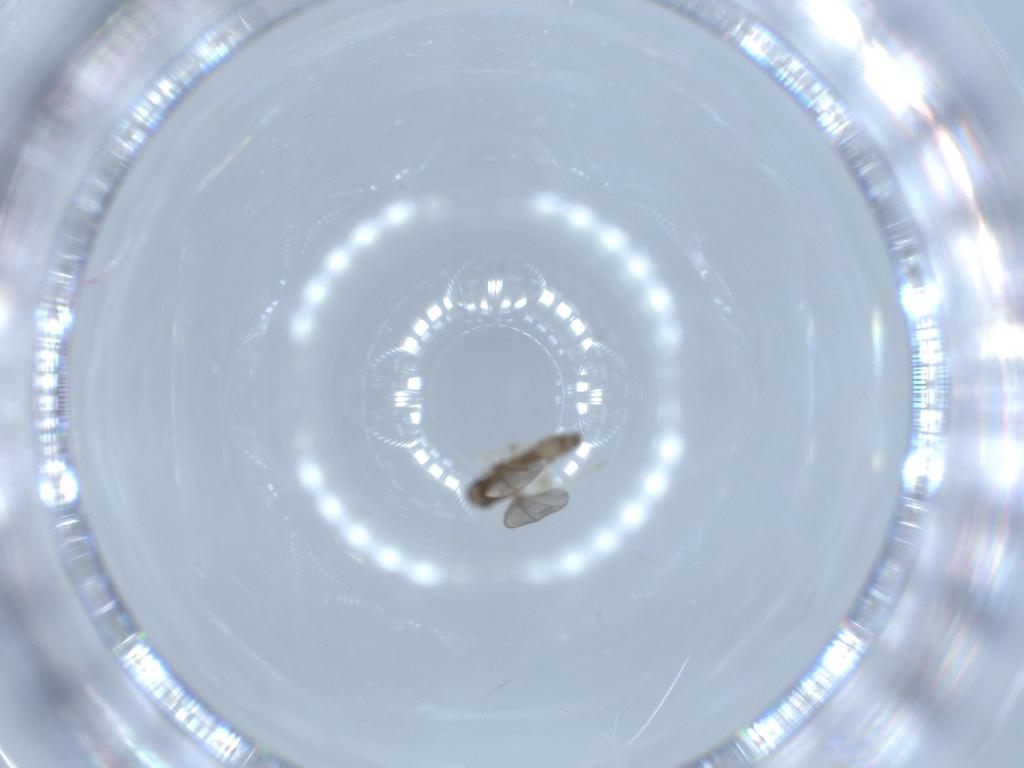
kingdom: Animalia
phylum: Arthropoda
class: Insecta
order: Diptera
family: Cecidomyiidae
